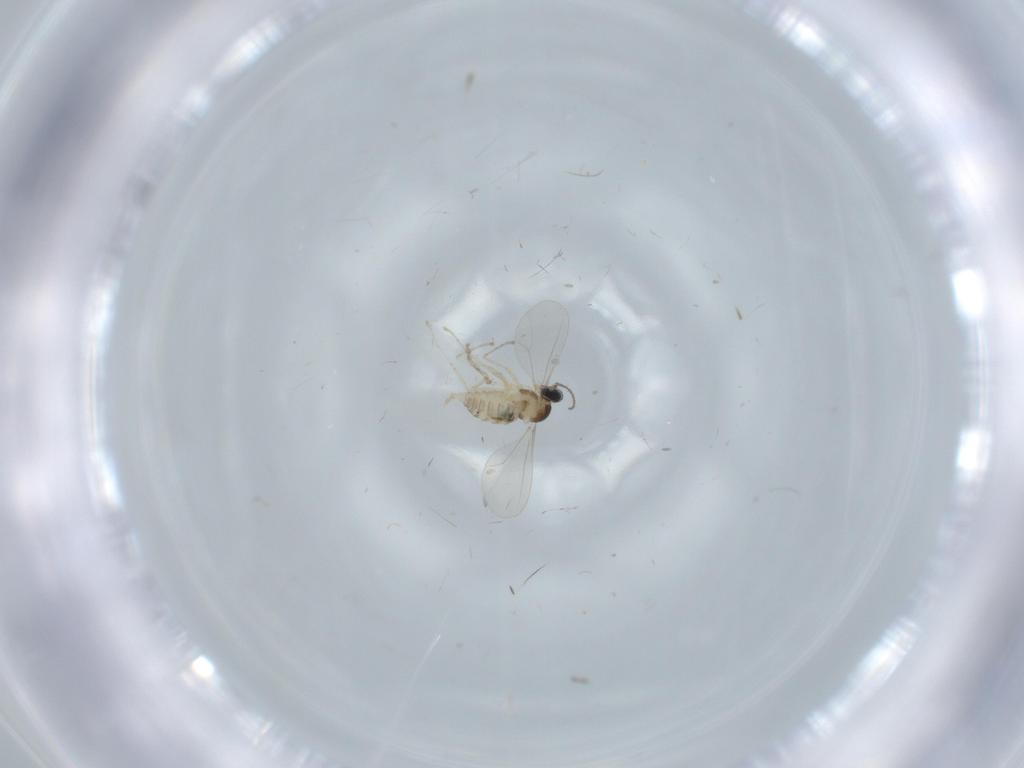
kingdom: Animalia
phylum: Arthropoda
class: Insecta
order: Diptera
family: Cecidomyiidae
